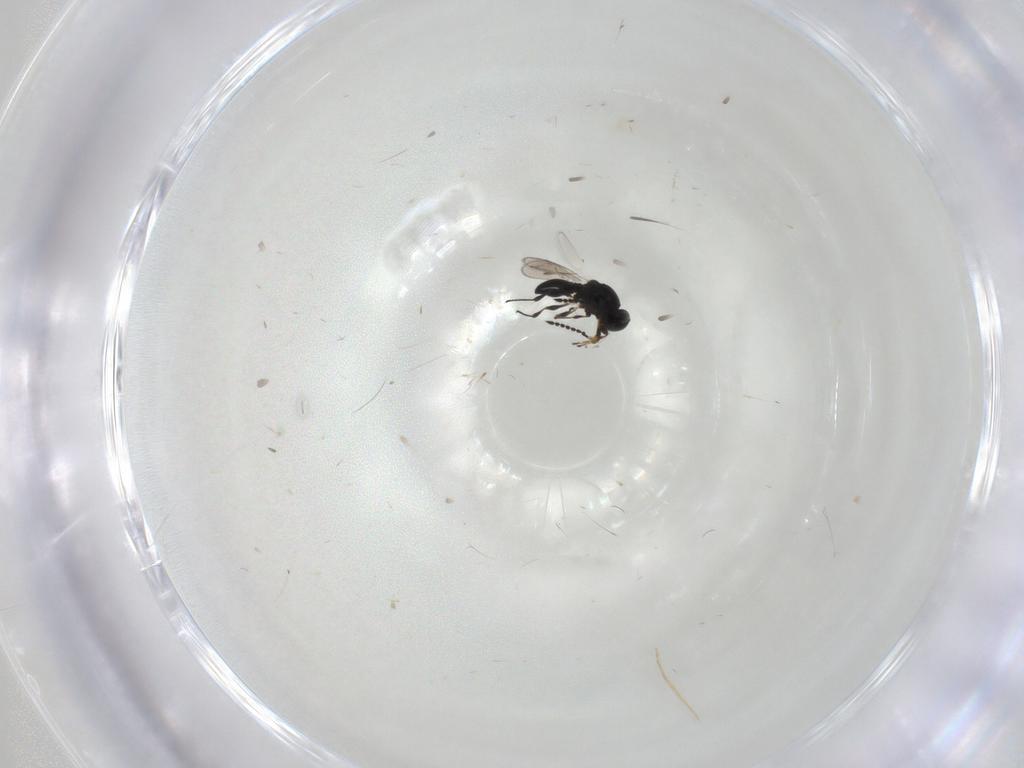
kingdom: Animalia
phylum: Arthropoda
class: Insecta
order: Hymenoptera
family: Platygastridae
